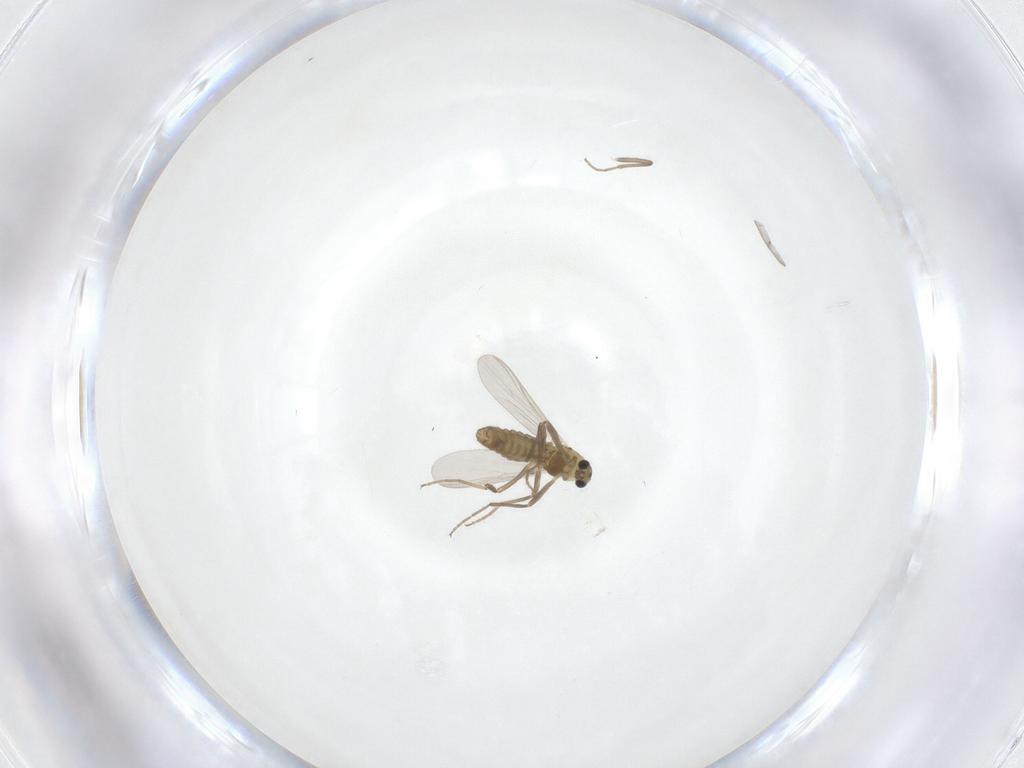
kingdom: Animalia
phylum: Arthropoda
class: Insecta
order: Diptera
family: Chironomidae
